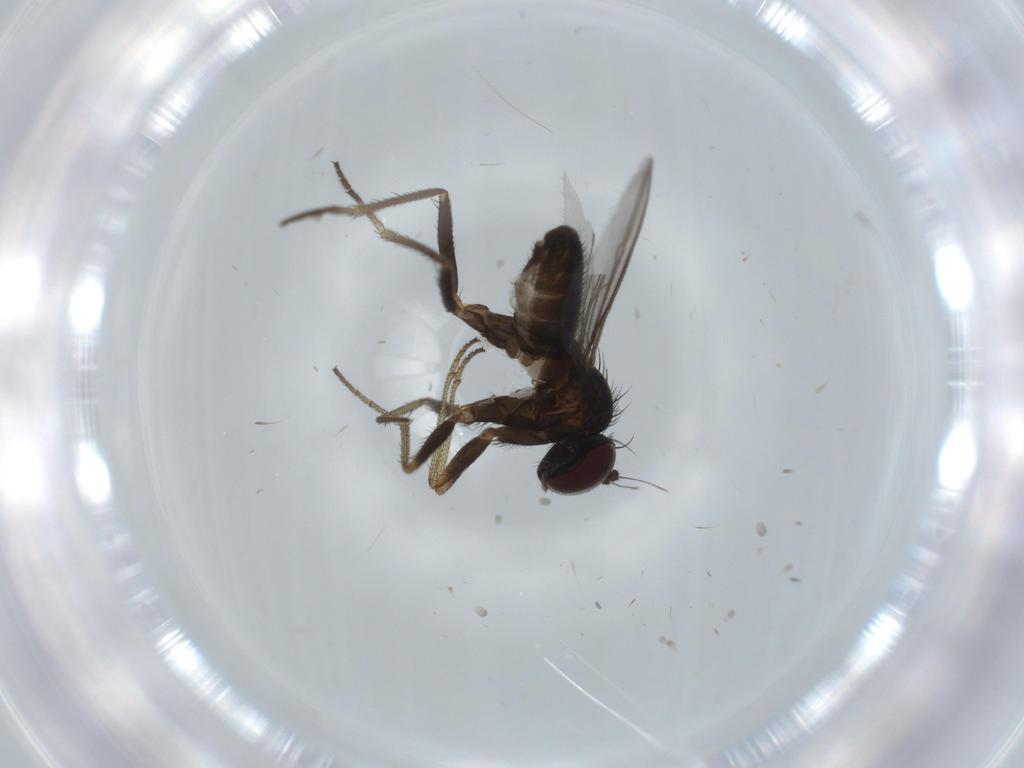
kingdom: Animalia
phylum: Arthropoda
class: Insecta
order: Diptera
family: Dolichopodidae
